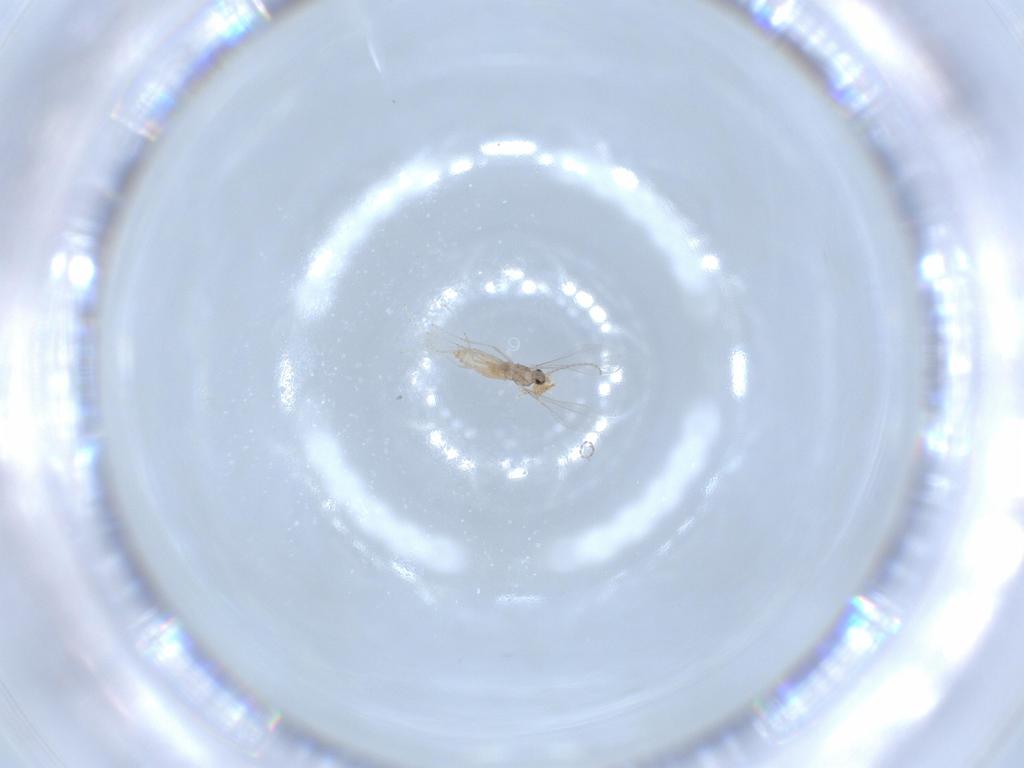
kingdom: Animalia
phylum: Arthropoda
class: Insecta
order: Diptera
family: Cecidomyiidae
